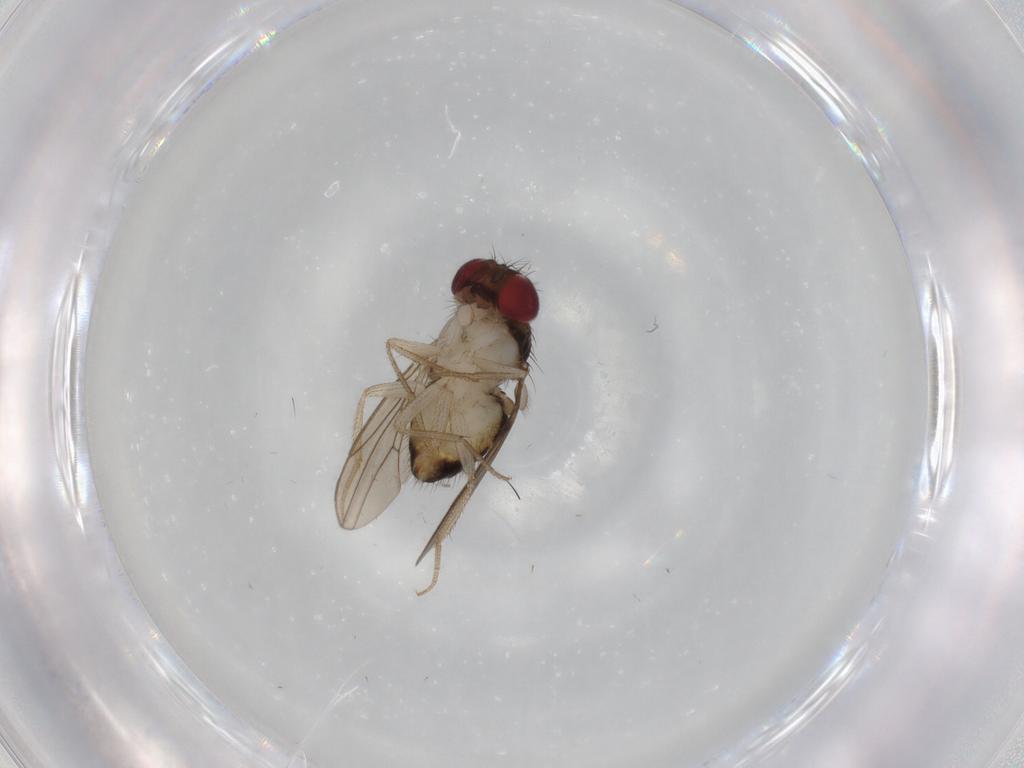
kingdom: Animalia
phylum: Arthropoda
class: Insecta
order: Diptera
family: Drosophilidae
